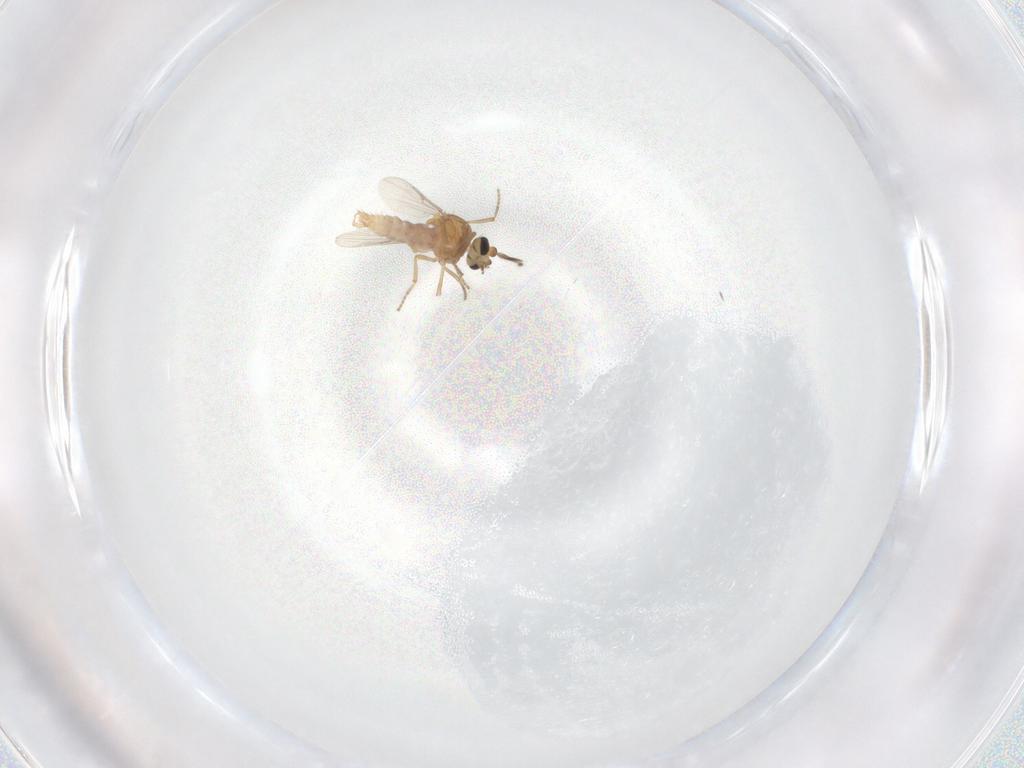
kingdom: Animalia
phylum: Arthropoda
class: Insecta
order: Diptera
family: Ceratopogonidae
